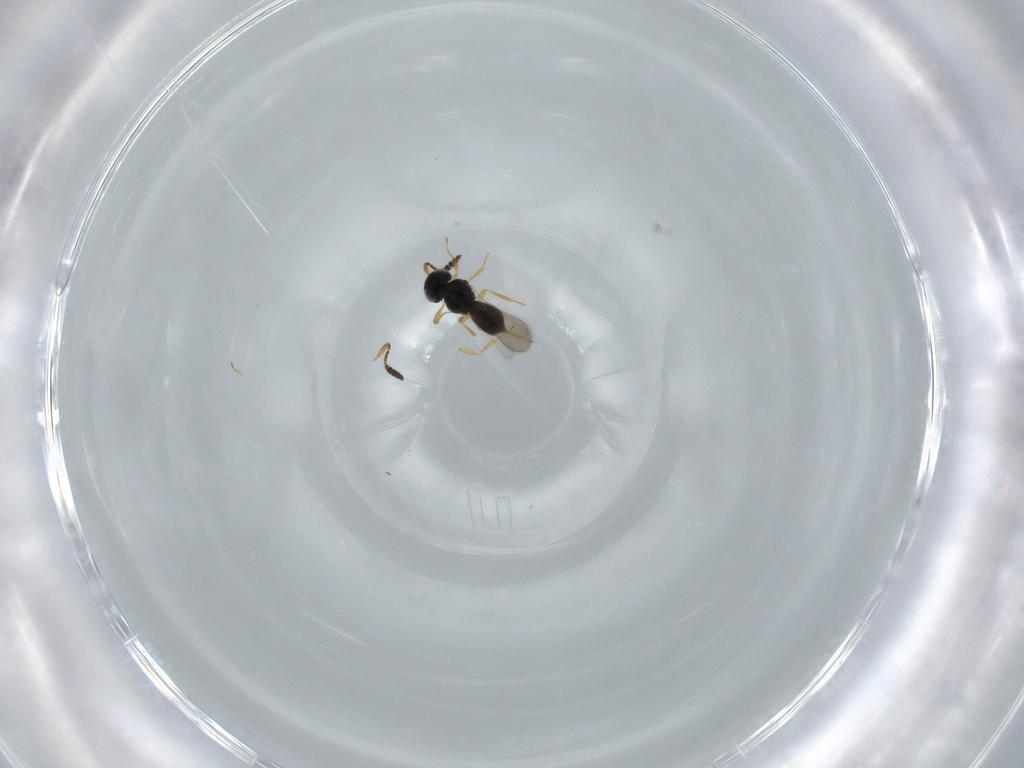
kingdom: Animalia
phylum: Arthropoda
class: Insecta
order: Hymenoptera
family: Scelionidae
